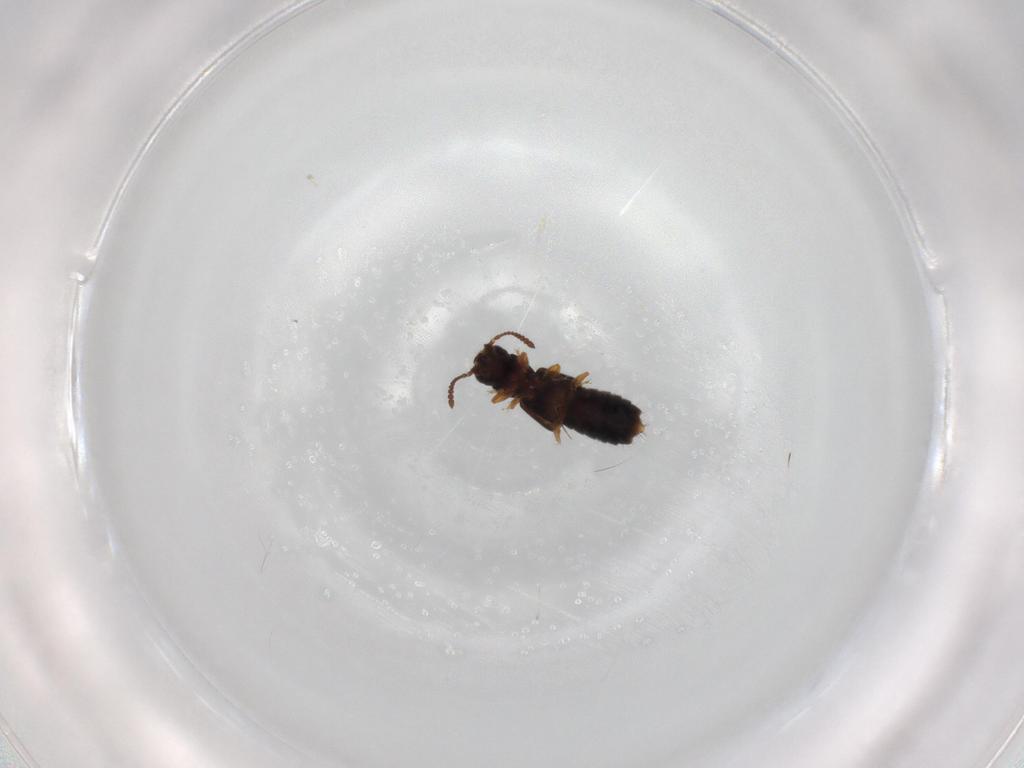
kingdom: Animalia
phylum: Arthropoda
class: Insecta
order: Coleoptera
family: Staphylinidae
